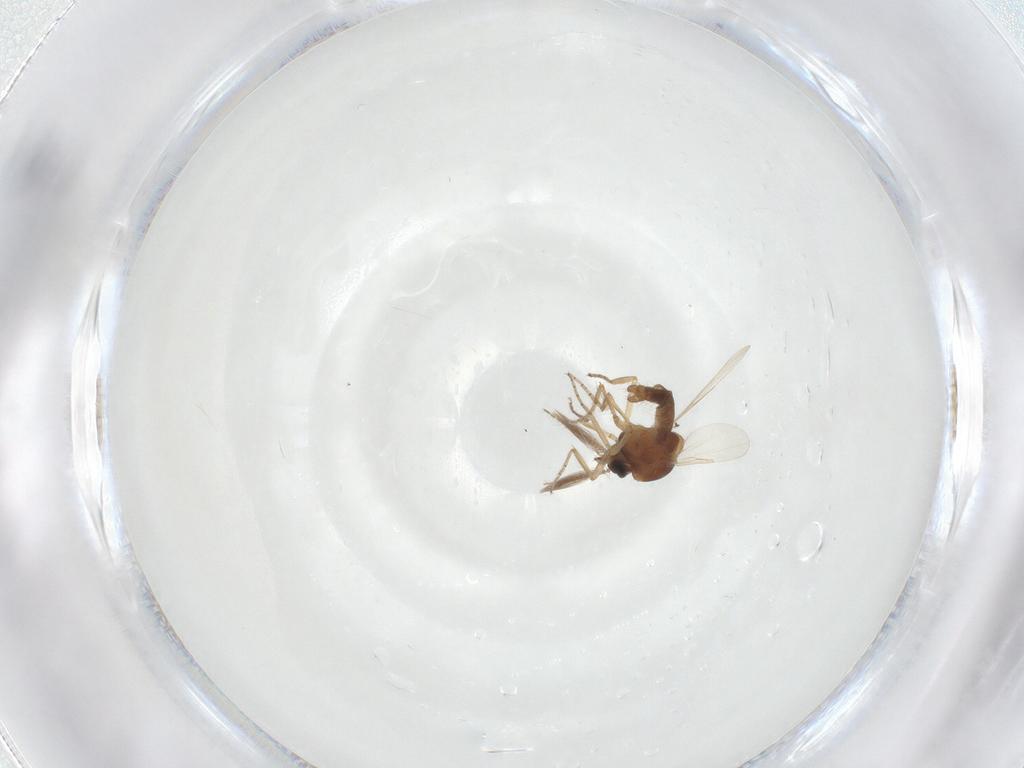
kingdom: Animalia
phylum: Arthropoda
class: Insecta
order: Diptera
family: Ceratopogonidae
